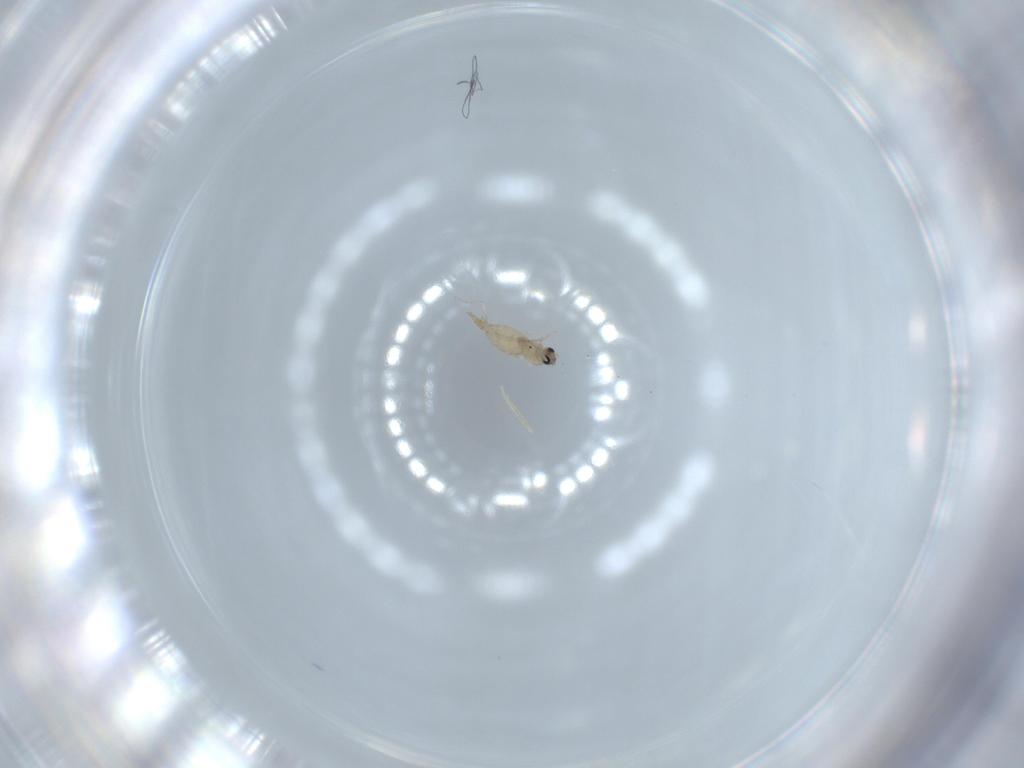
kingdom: Animalia
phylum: Arthropoda
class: Insecta
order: Diptera
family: Cecidomyiidae
